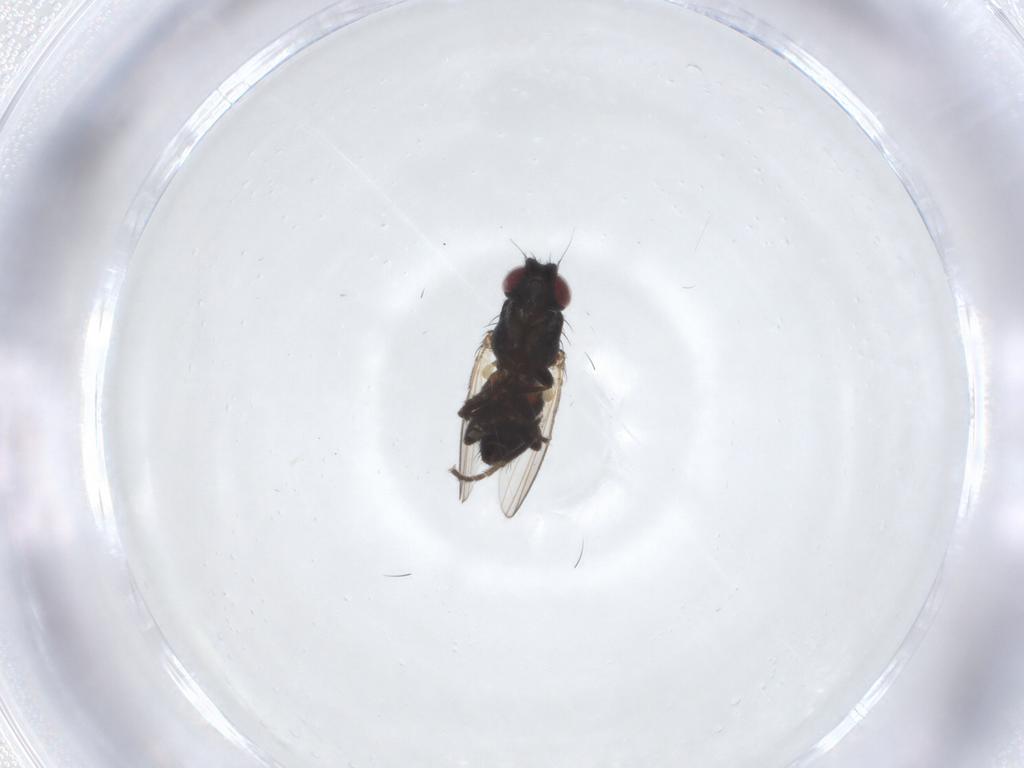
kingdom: Animalia
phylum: Arthropoda
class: Insecta
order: Diptera
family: Milichiidae
